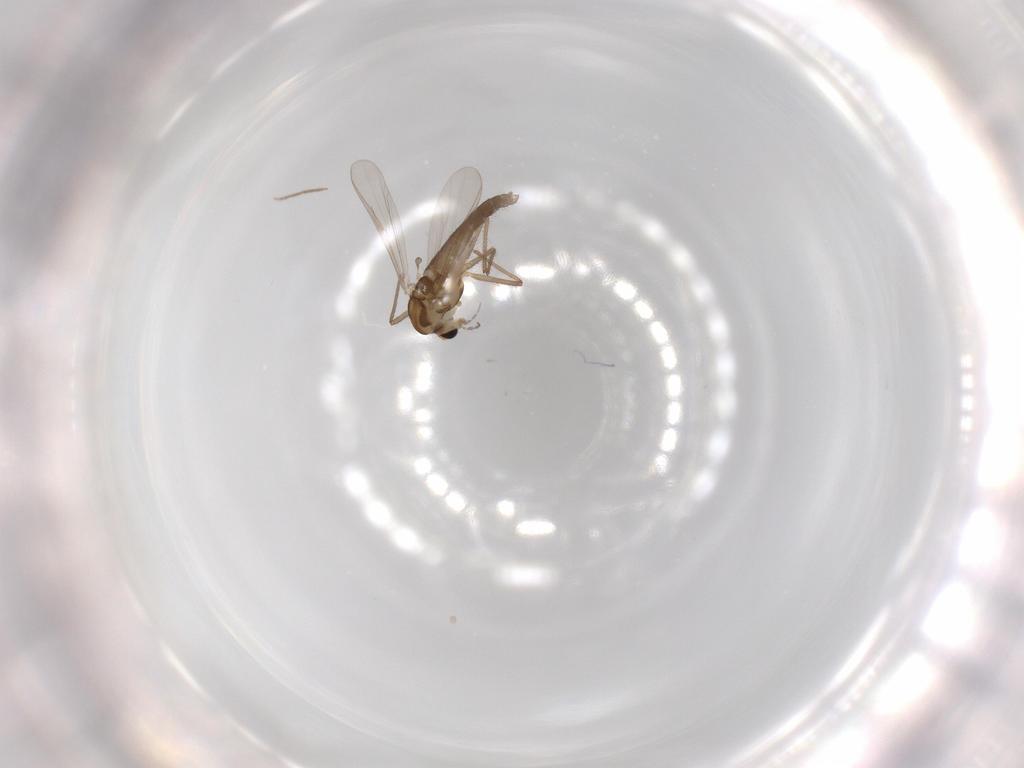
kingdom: Animalia
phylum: Arthropoda
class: Insecta
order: Diptera
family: Chironomidae
